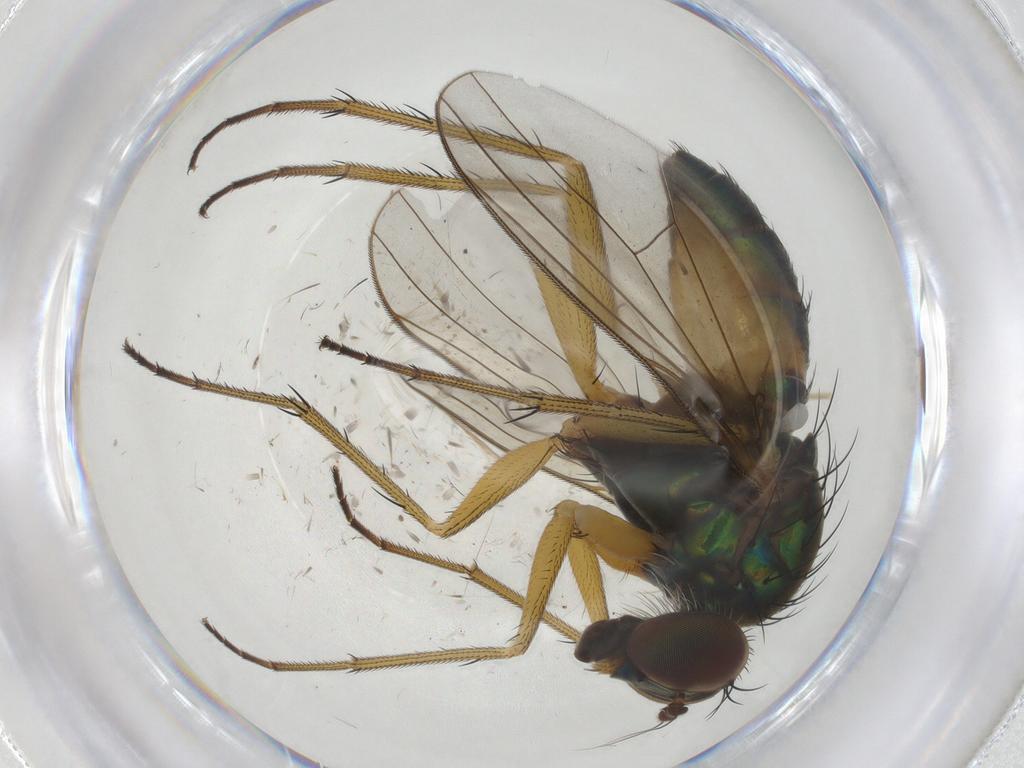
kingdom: Animalia
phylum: Arthropoda
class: Insecta
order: Diptera
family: Dolichopodidae
